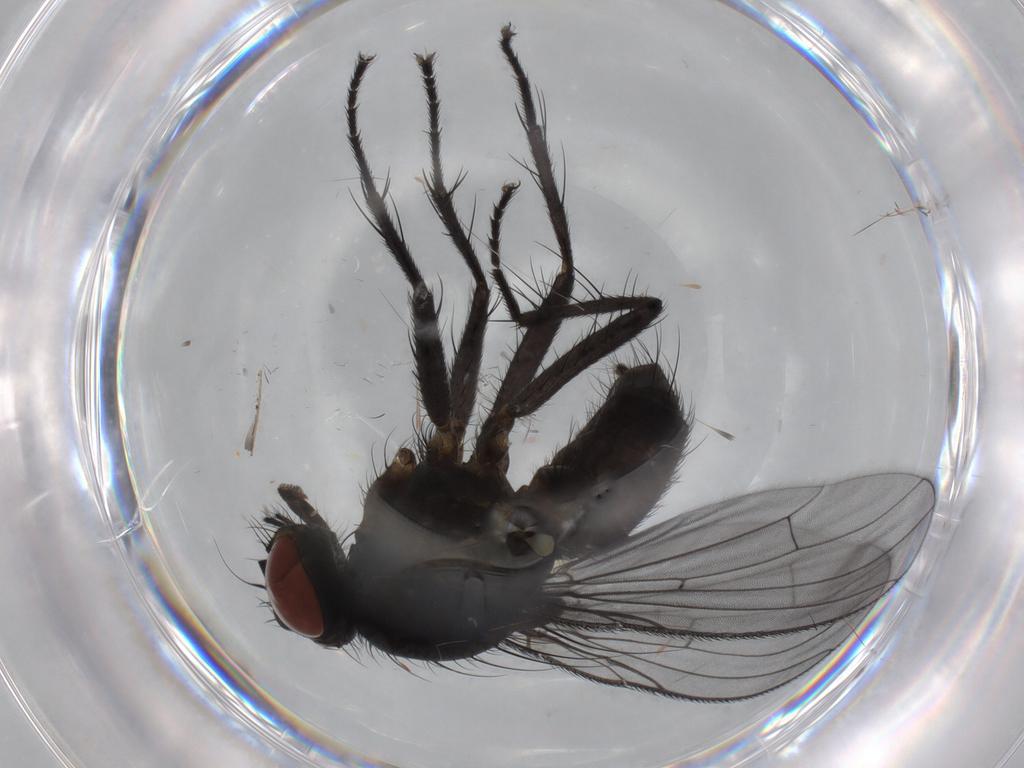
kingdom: Animalia
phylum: Arthropoda
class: Insecta
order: Diptera
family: Muscidae
